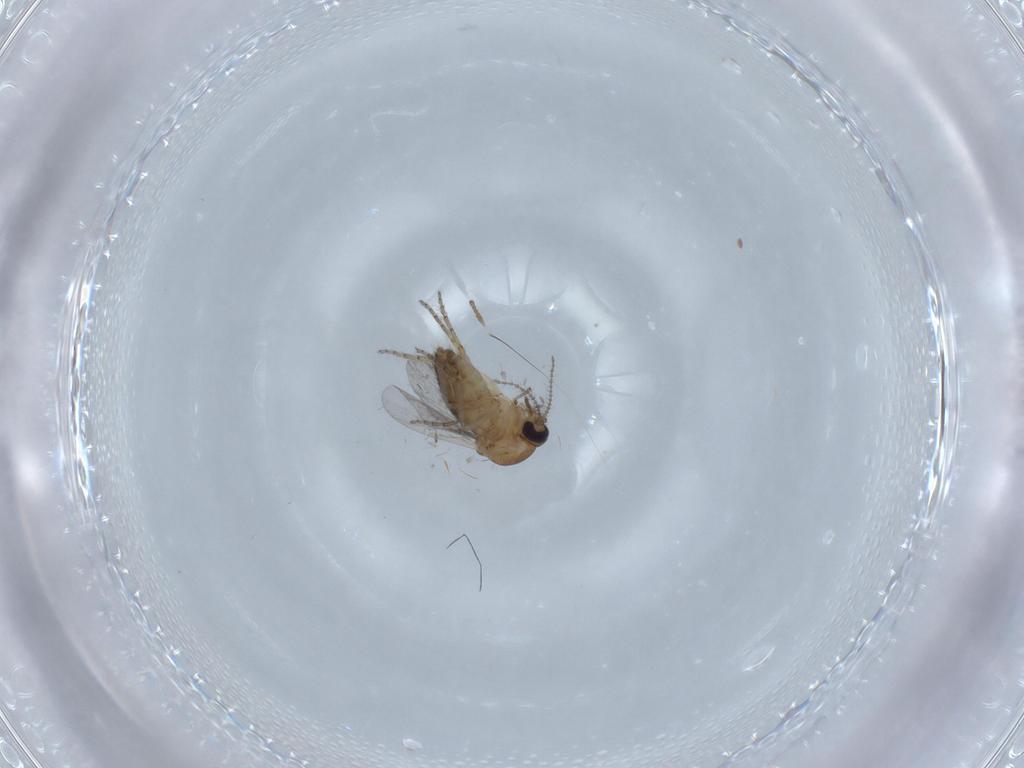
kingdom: Animalia
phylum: Arthropoda
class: Insecta
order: Diptera
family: Ceratopogonidae
